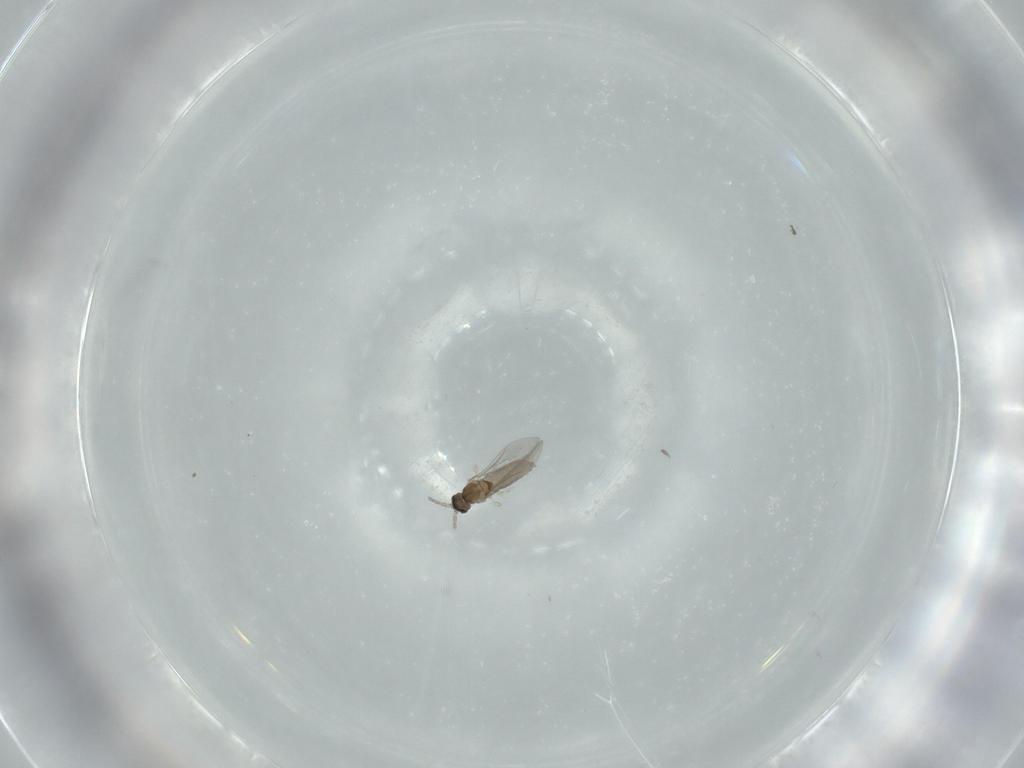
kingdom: Animalia
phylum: Arthropoda
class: Insecta
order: Diptera
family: Cecidomyiidae
